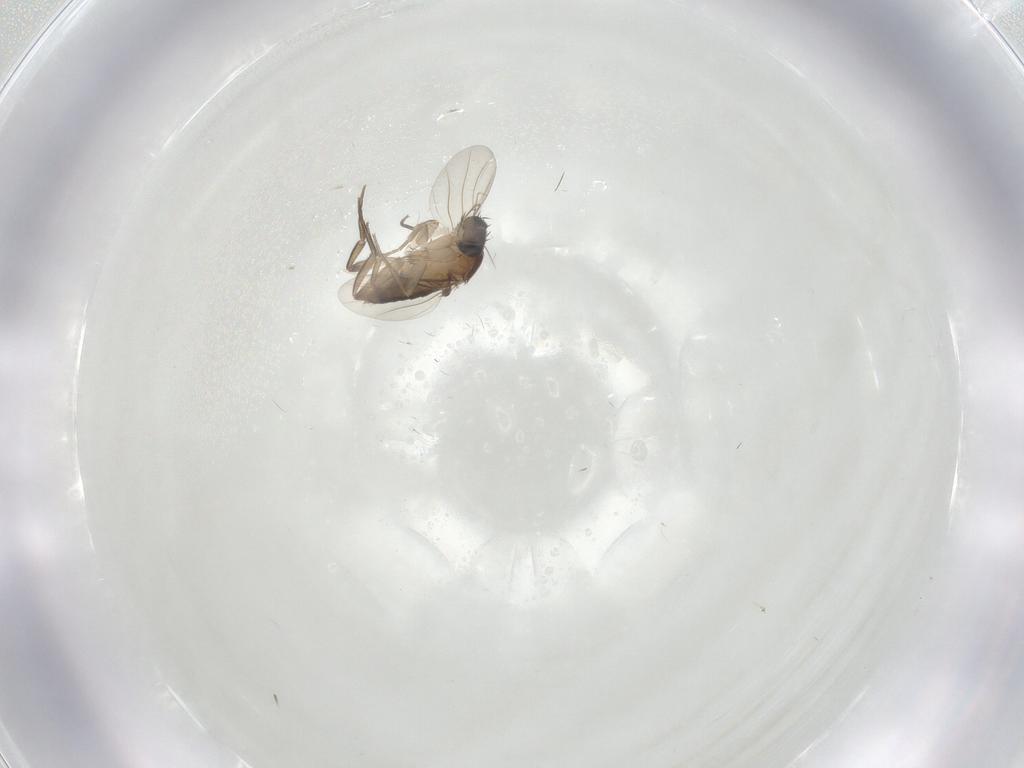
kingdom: Animalia
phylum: Arthropoda
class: Insecta
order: Diptera
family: Phoridae
